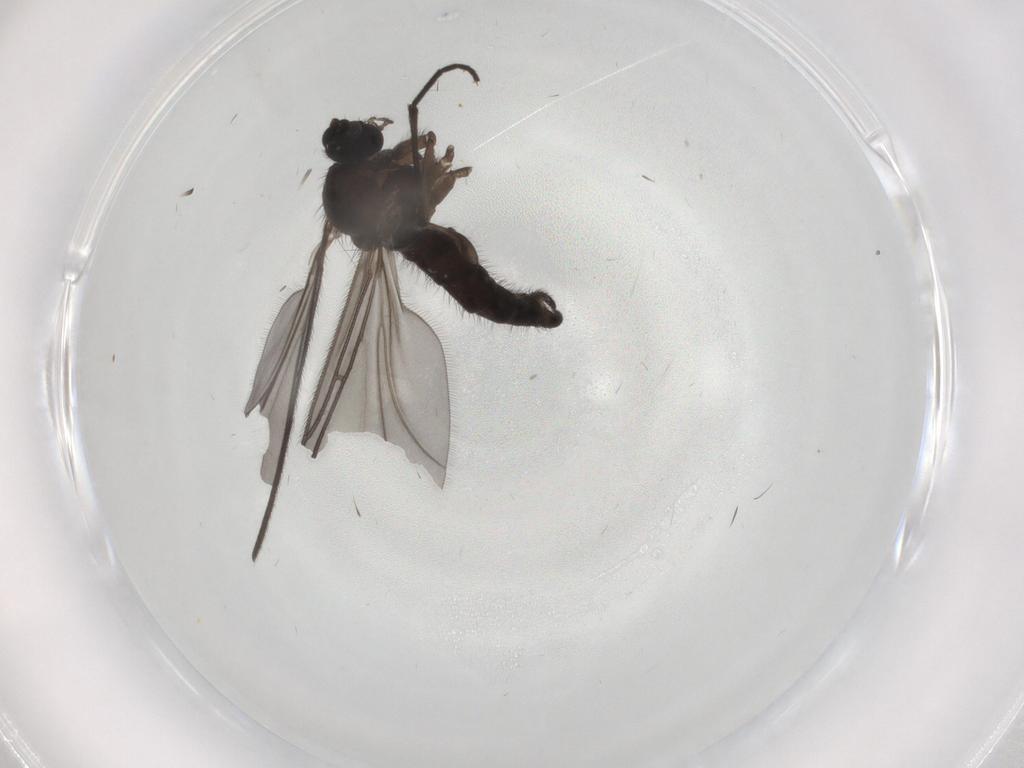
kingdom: Animalia
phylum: Arthropoda
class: Insecta
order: Diptera
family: Sciaridae
